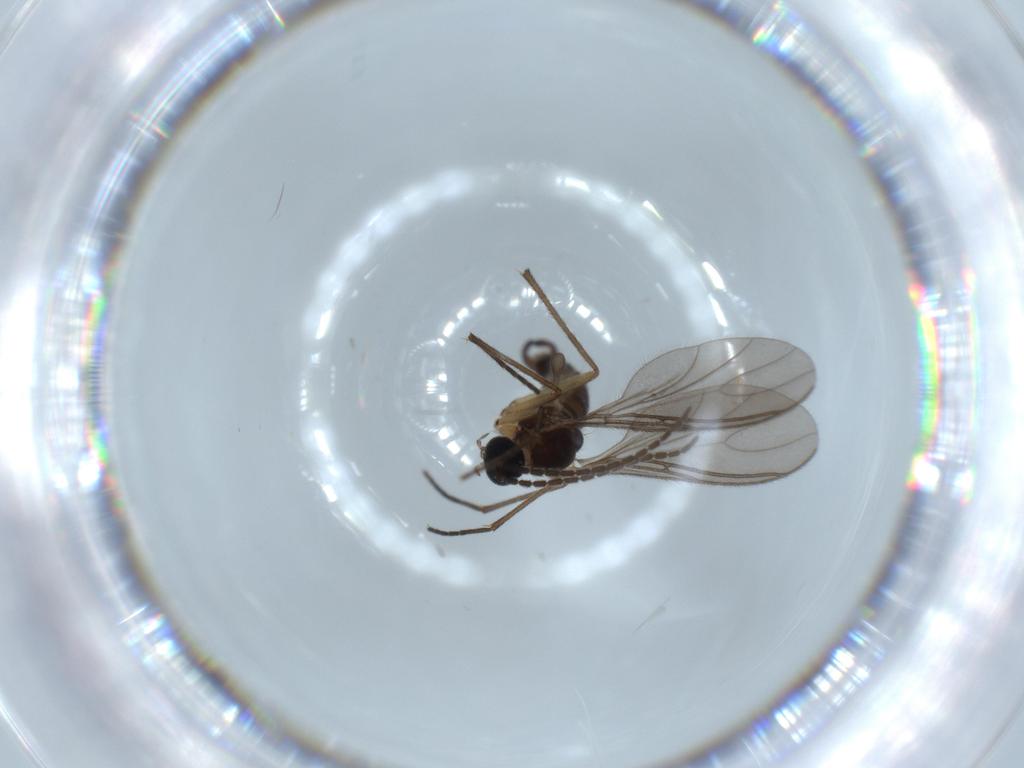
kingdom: Animalia
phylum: Arthropoda
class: Insecta
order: Diptera
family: Sciaridae
